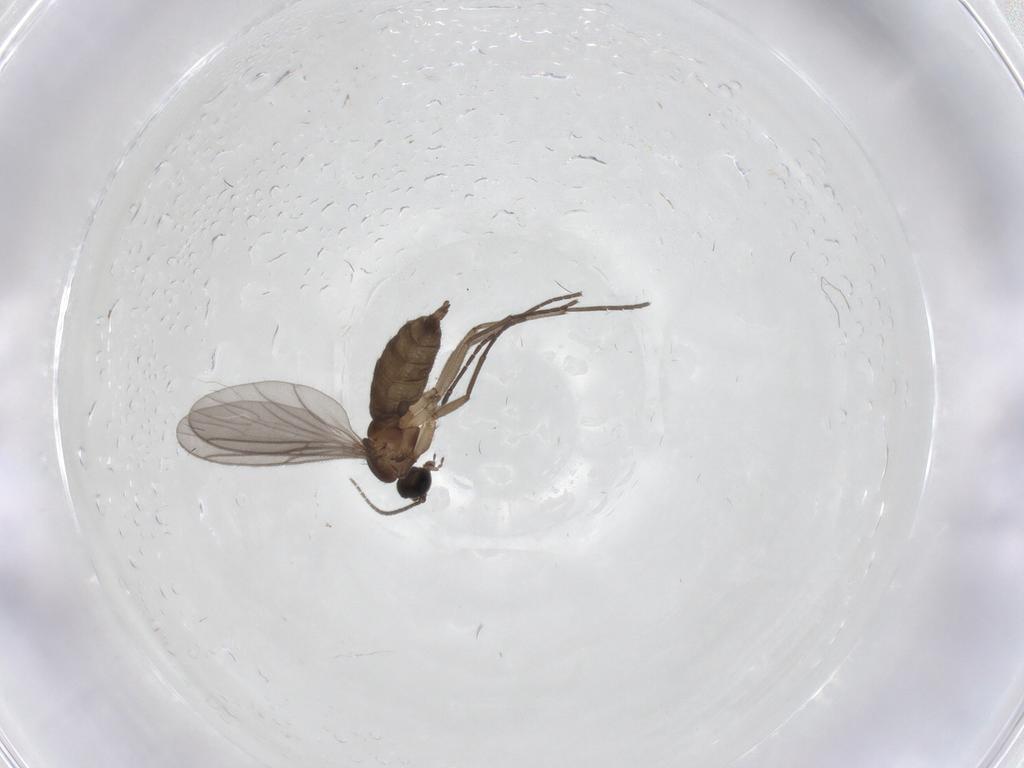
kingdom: Animalia
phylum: Arthropoda
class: Insecta
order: Diptera
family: Sciaridae
